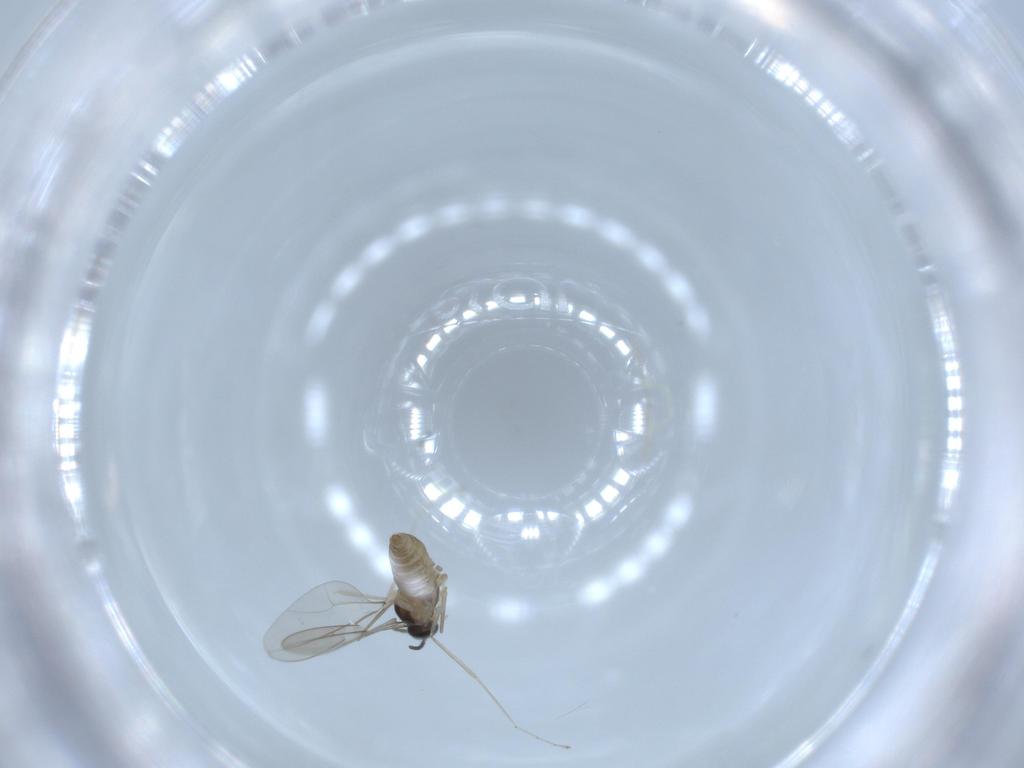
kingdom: Animalia
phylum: Arthropoda
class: Insecta
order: Diptera
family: Cecidomyiidae
